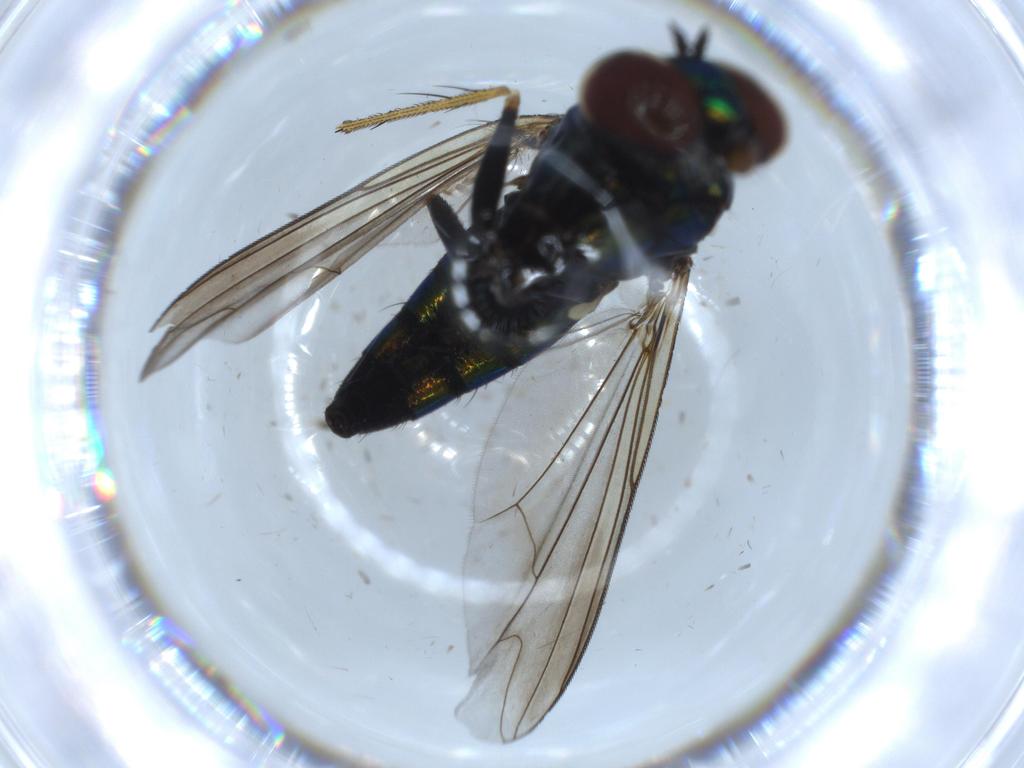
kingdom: Animalia
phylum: Arthropoda
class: Insecta
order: Diptera
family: Dolichopodidae
